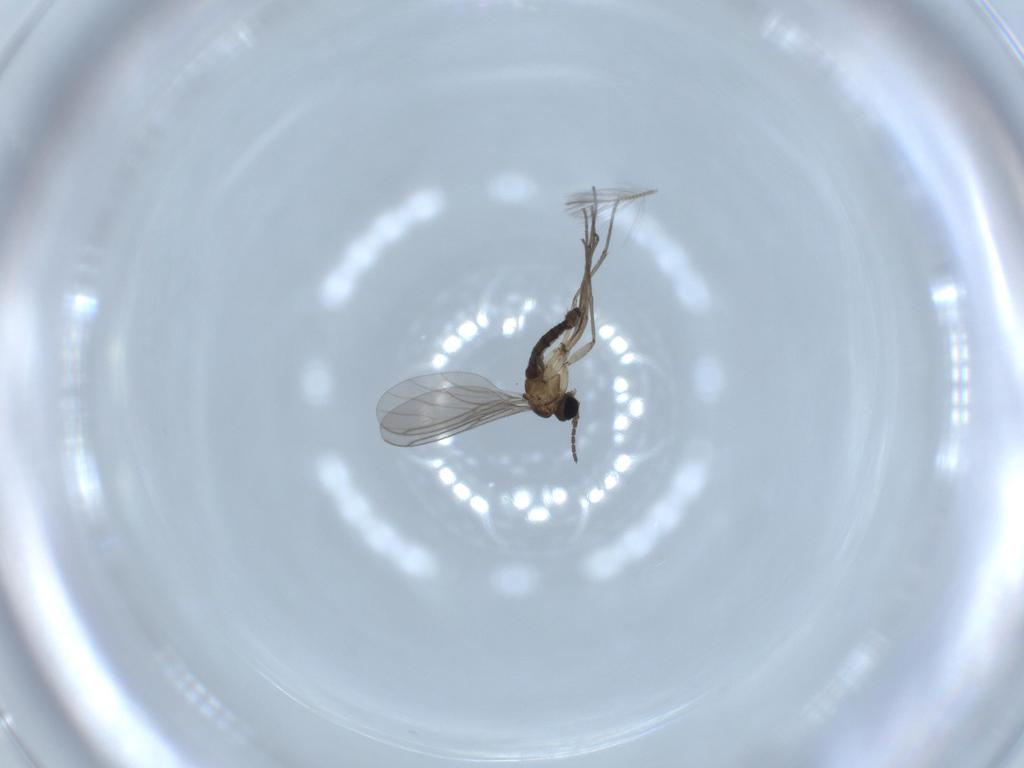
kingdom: Animalia
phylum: Arthropoda
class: Insecta
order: Diptera
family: Sciaridae
